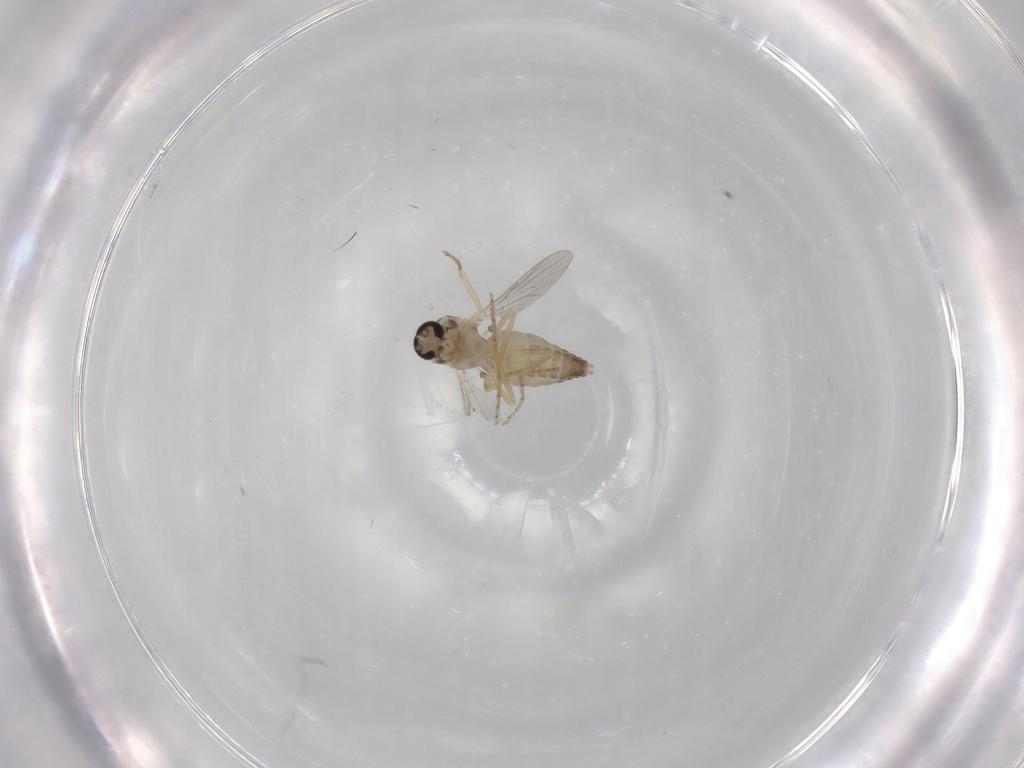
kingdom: Animalia
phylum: Arthropoda
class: Insecta
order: Diptera
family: Ceratopogonidae
